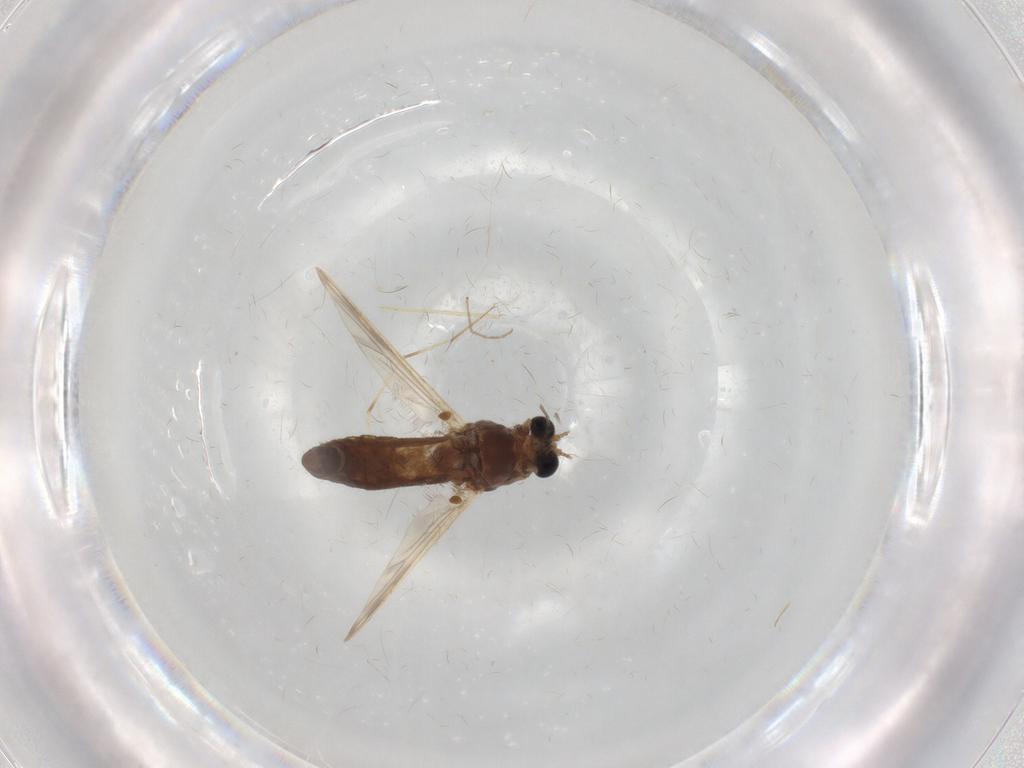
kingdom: Animalia
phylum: Arthropoda
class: Insecta
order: Diptera
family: Chironomidae
